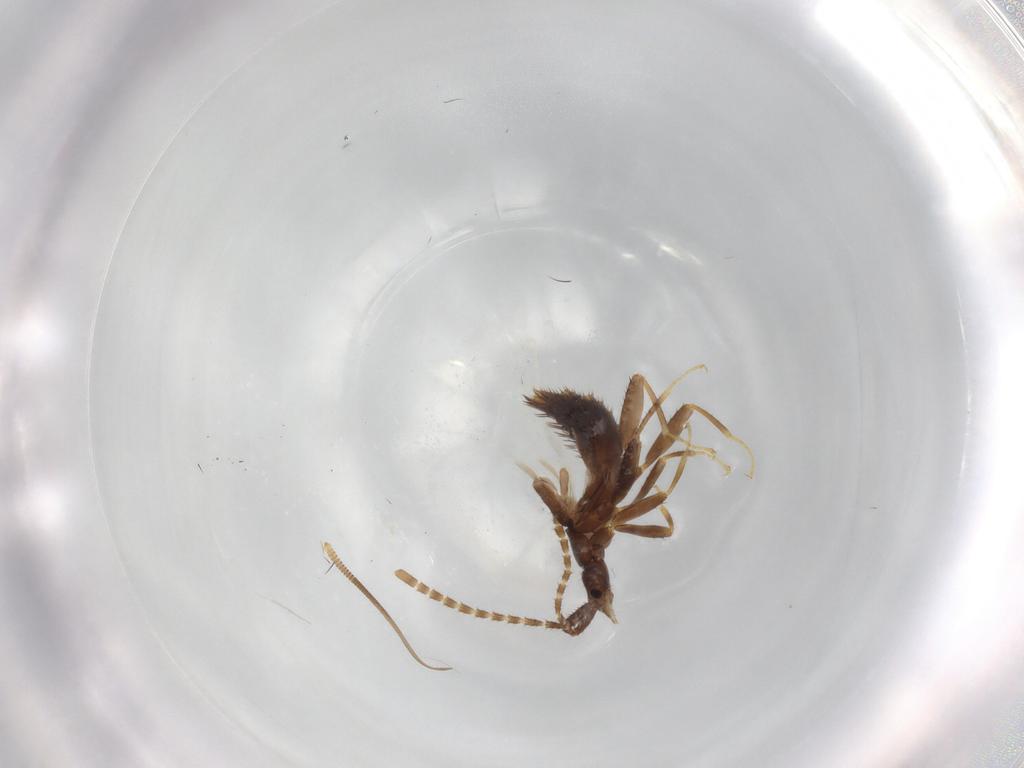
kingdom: Animalia
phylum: Arthropoda
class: Insecta
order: Coleoptera
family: Staphylinidae
